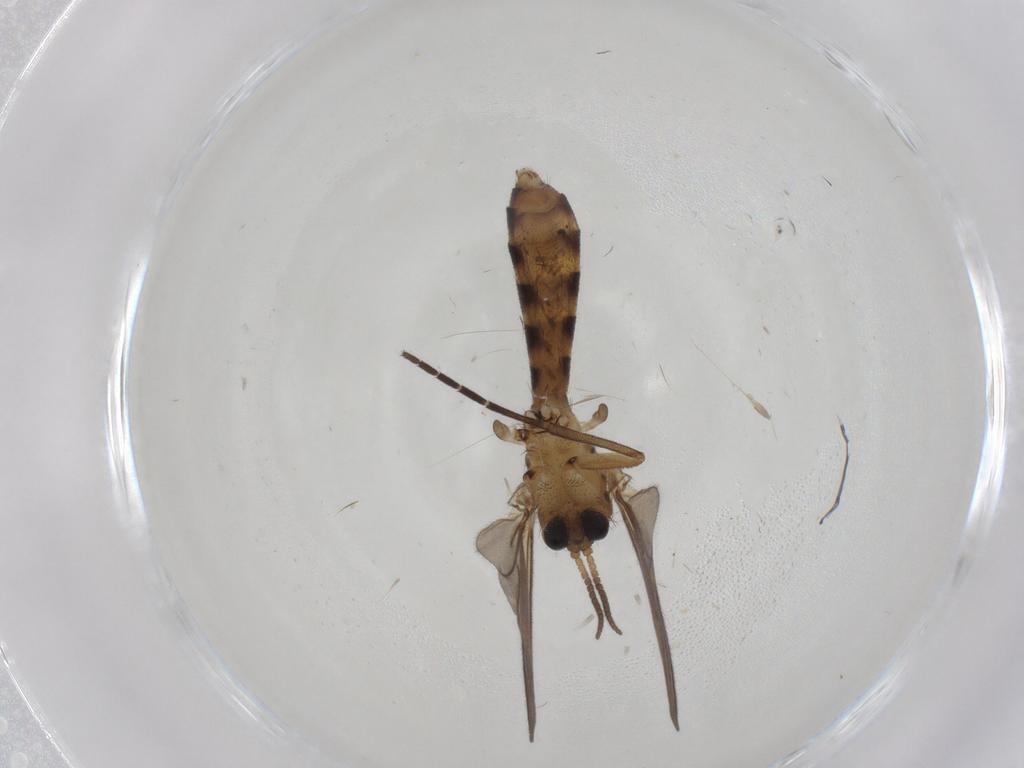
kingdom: Animalia
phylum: Arthropoda
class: Insecta
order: Diptera
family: Mycetophilidae
